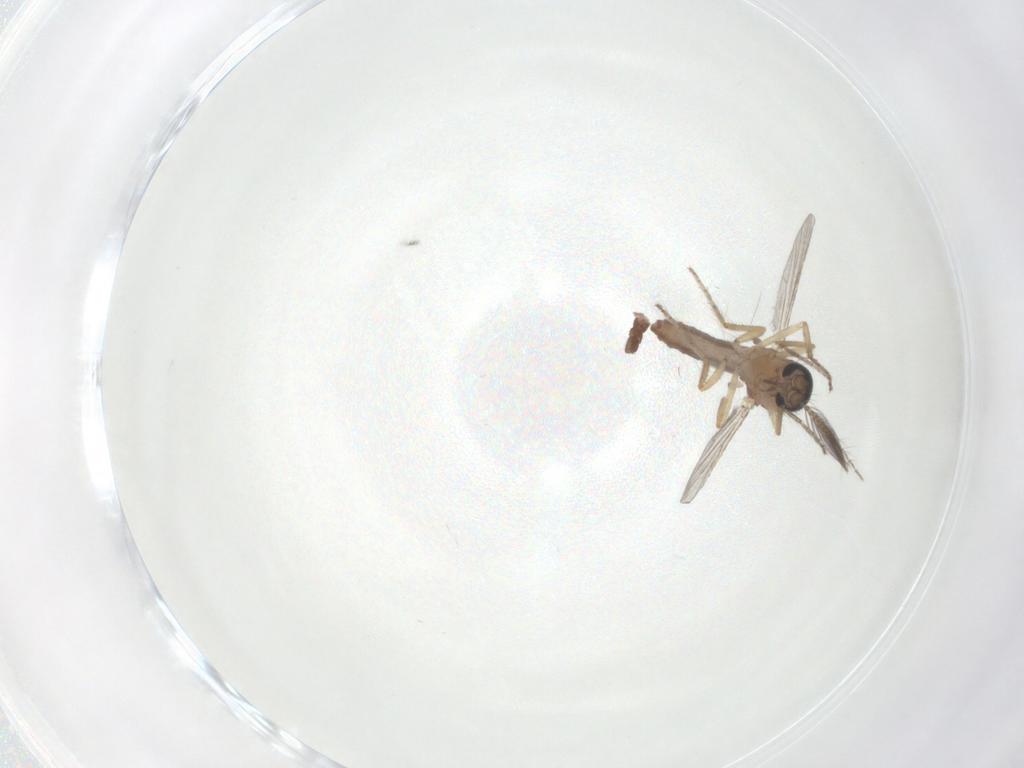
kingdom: Animalia
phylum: Arthropoda
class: Insecta
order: Diptera
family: Ceratopogonidae
